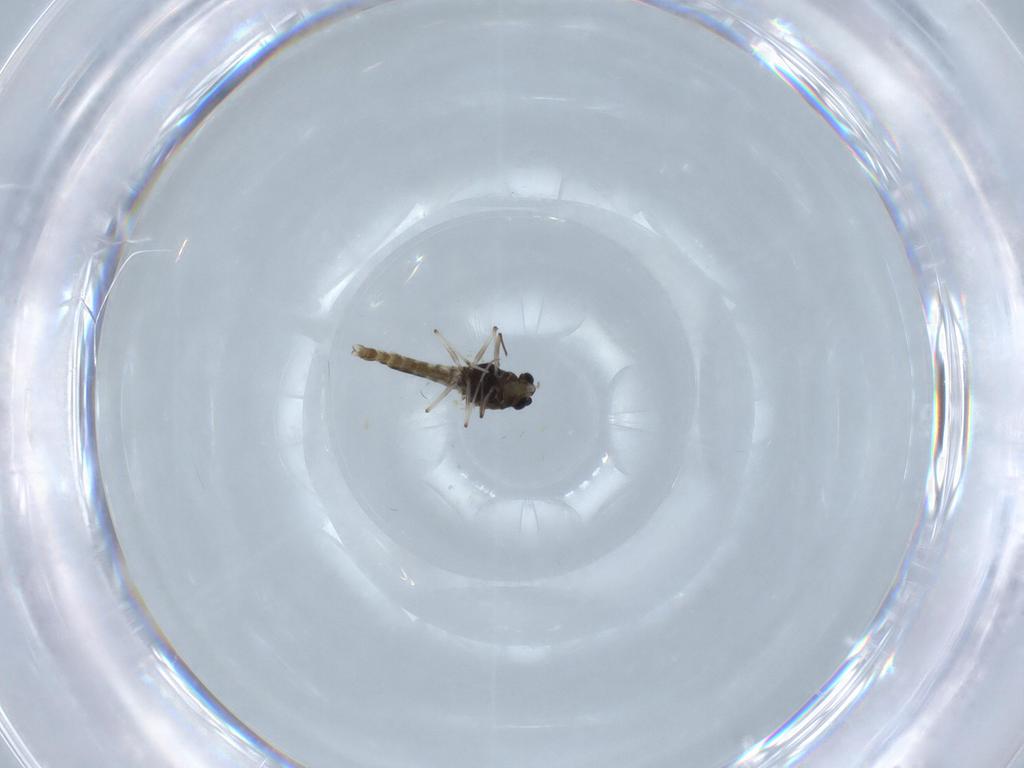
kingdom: Animalia
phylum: Arthropoda
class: Insecta
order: Diptera
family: Chironomidae
